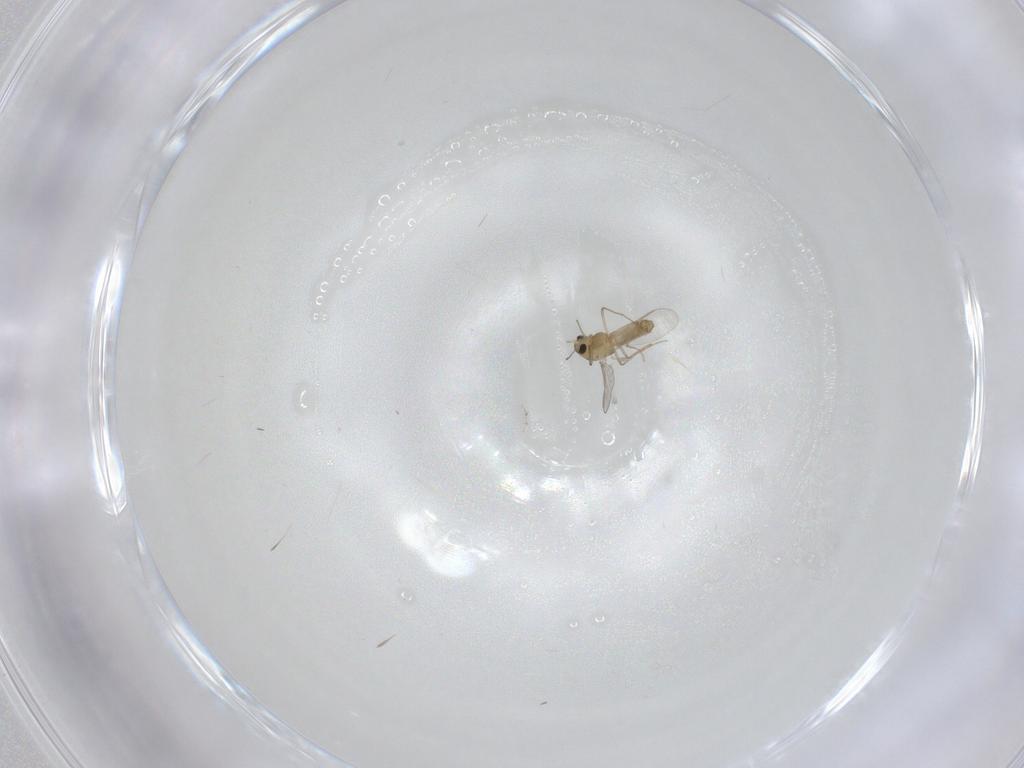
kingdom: Animalia
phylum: Arthropoda
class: Insecta
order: Diptera
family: Chironomidae
